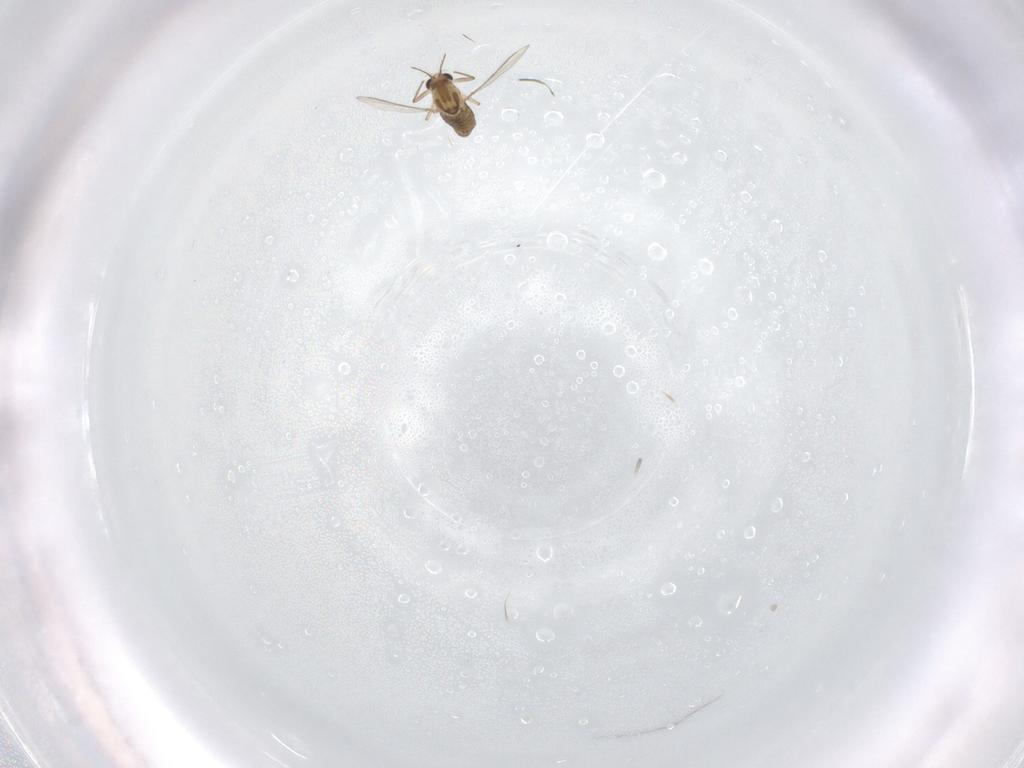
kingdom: Animalia
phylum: Arthropoda
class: Insecta
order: Diptera
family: Chironomidae
